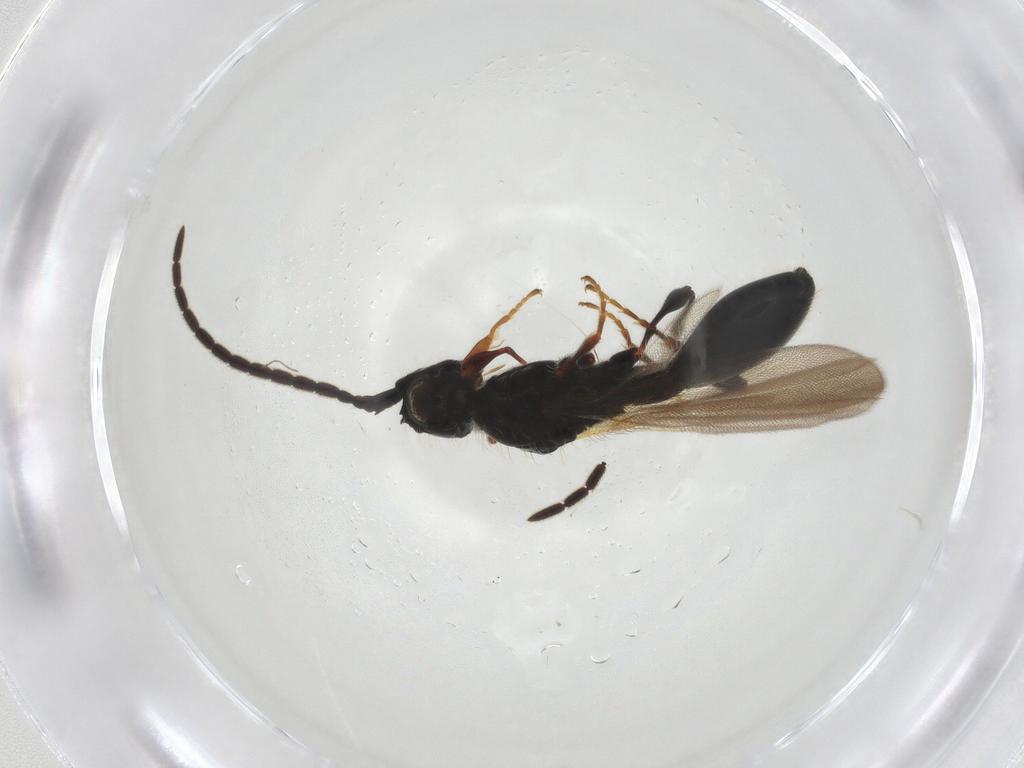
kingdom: Animalia
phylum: Arthropoda
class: Insecta
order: Hymenoptera
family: Diapriidae
